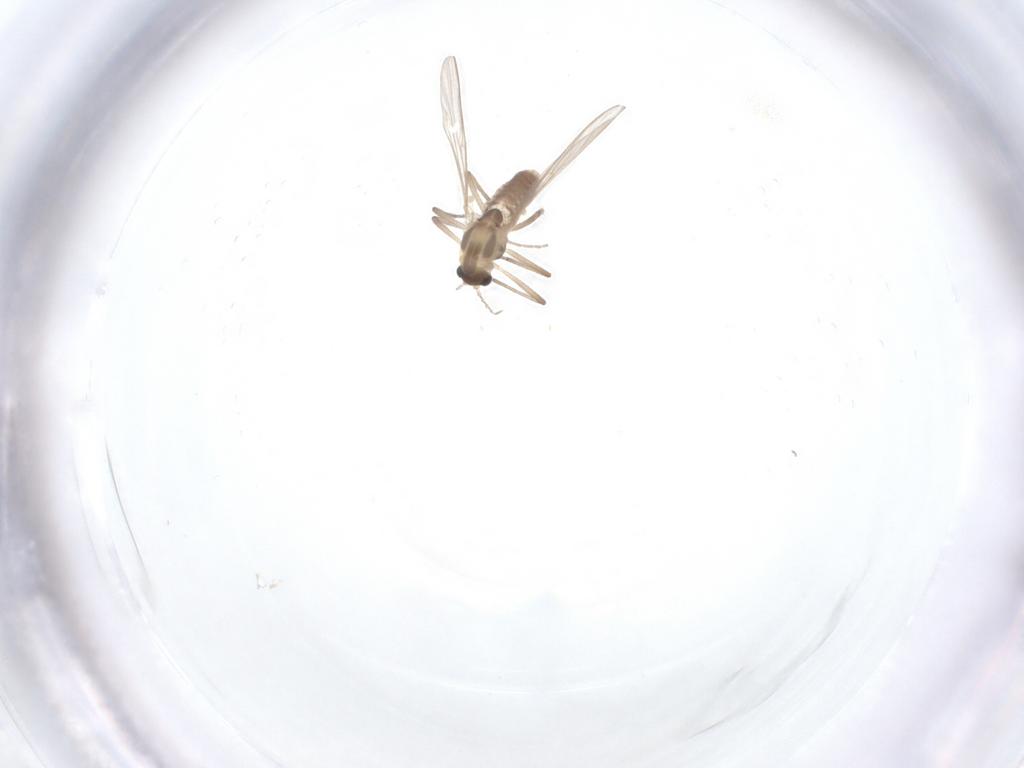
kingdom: Animalia
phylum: Arthropoda
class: Insecta
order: Diptera
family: Chironomidae
